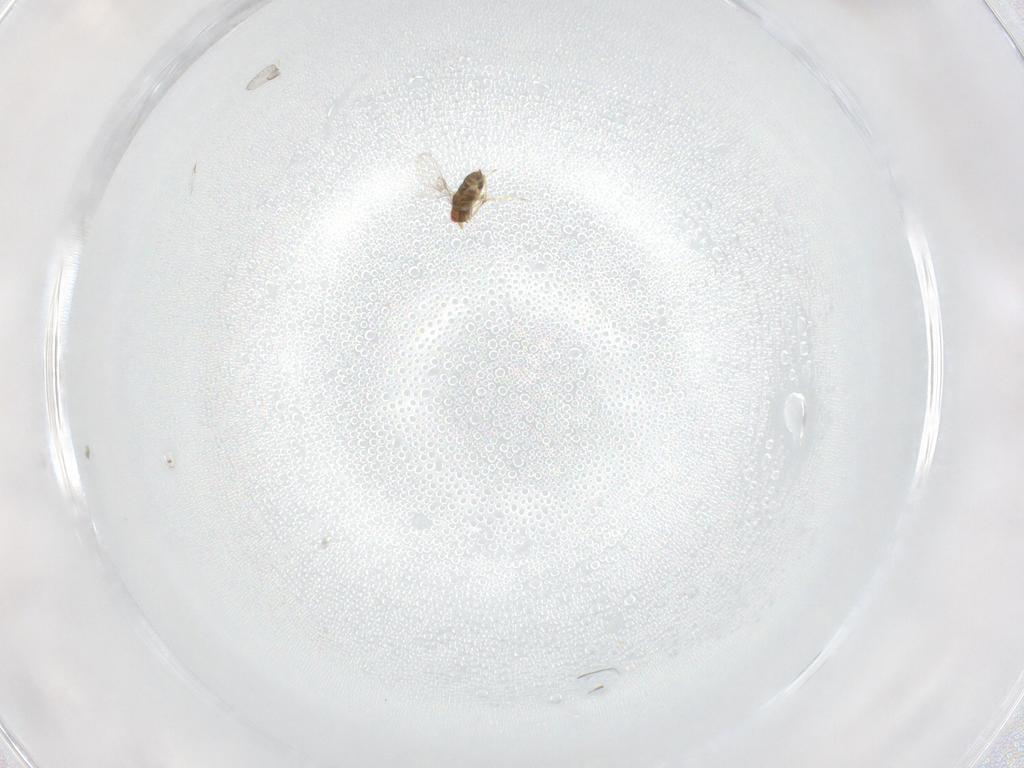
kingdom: Animalia
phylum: Arthropoda
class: Insecta
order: Hymenoptera
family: Trichogrammatidae
